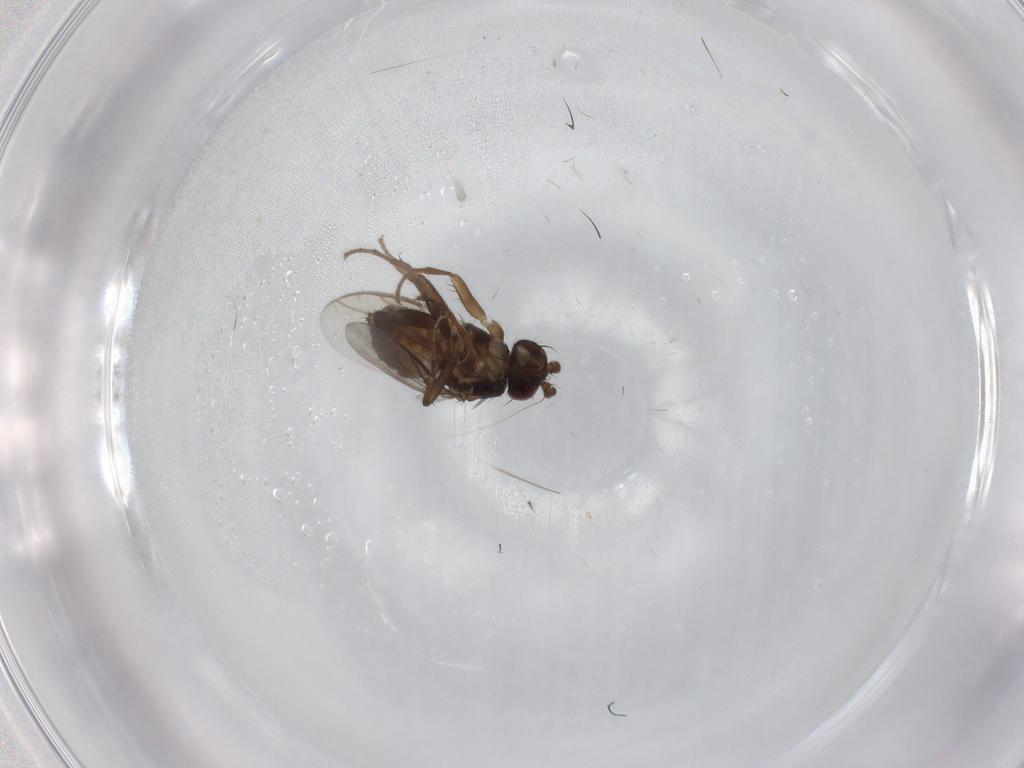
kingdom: Animalia
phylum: Arthropoda
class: Insecta
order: Diptera
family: Sphaeroceridae
